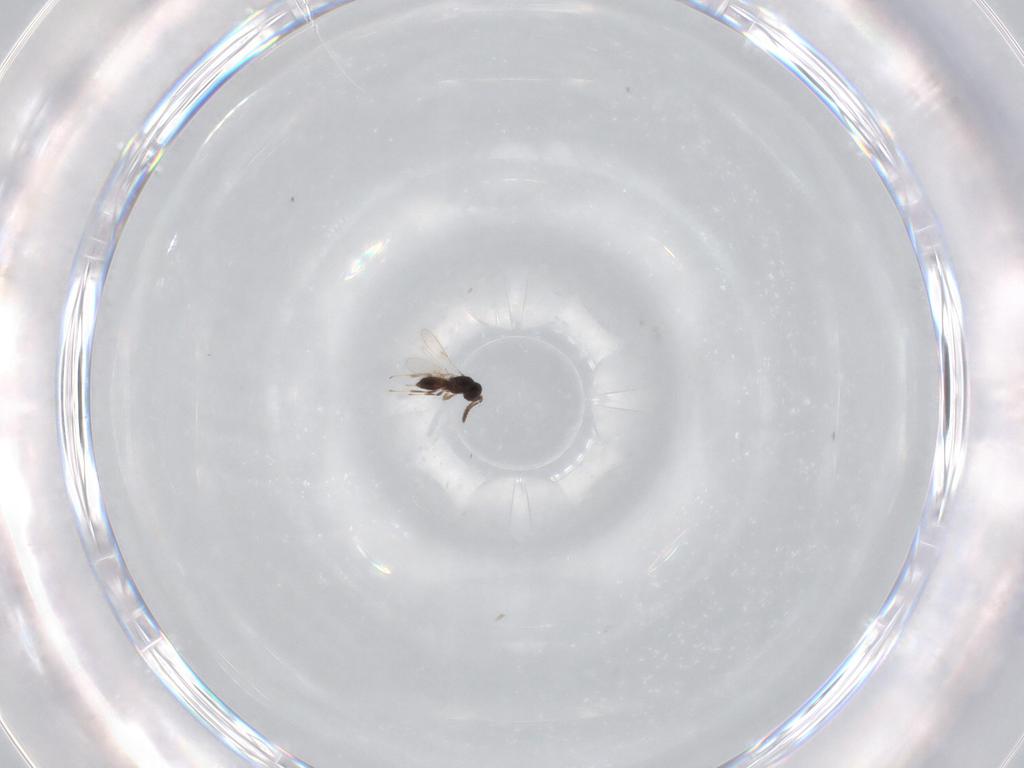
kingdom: Animalia
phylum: Arthropoda
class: Insecta
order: Hymenoptera
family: Scelionidae
